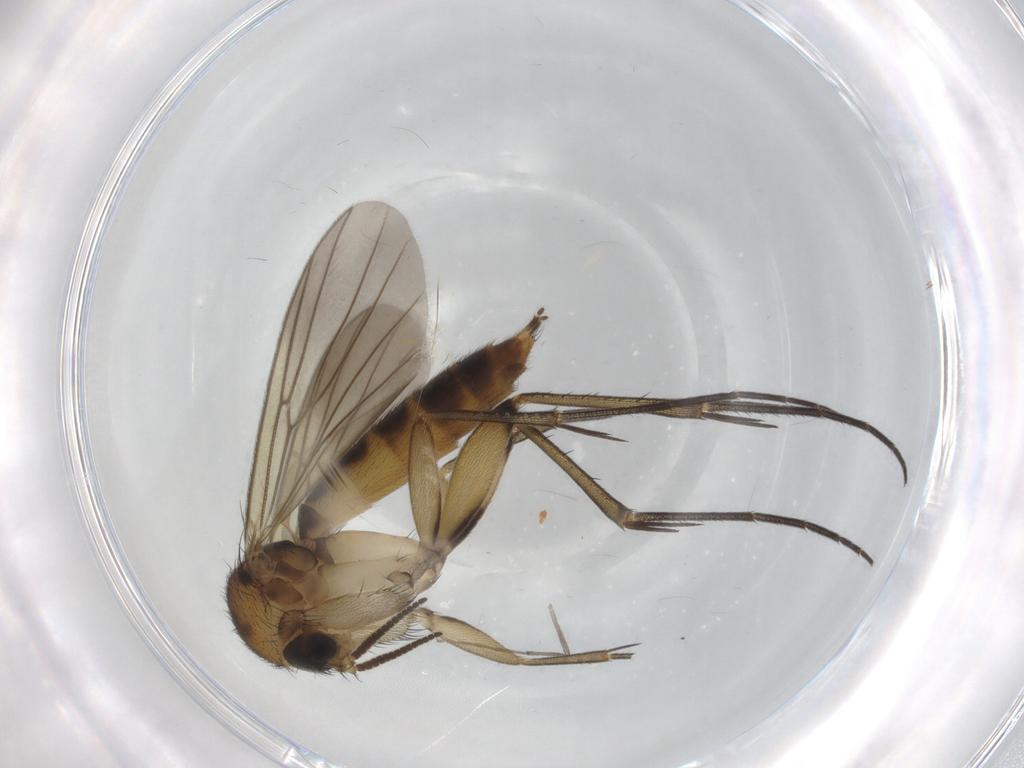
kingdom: Animalia
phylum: Arthropoda
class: Insecta
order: Diptera
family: Mycetophilidae
